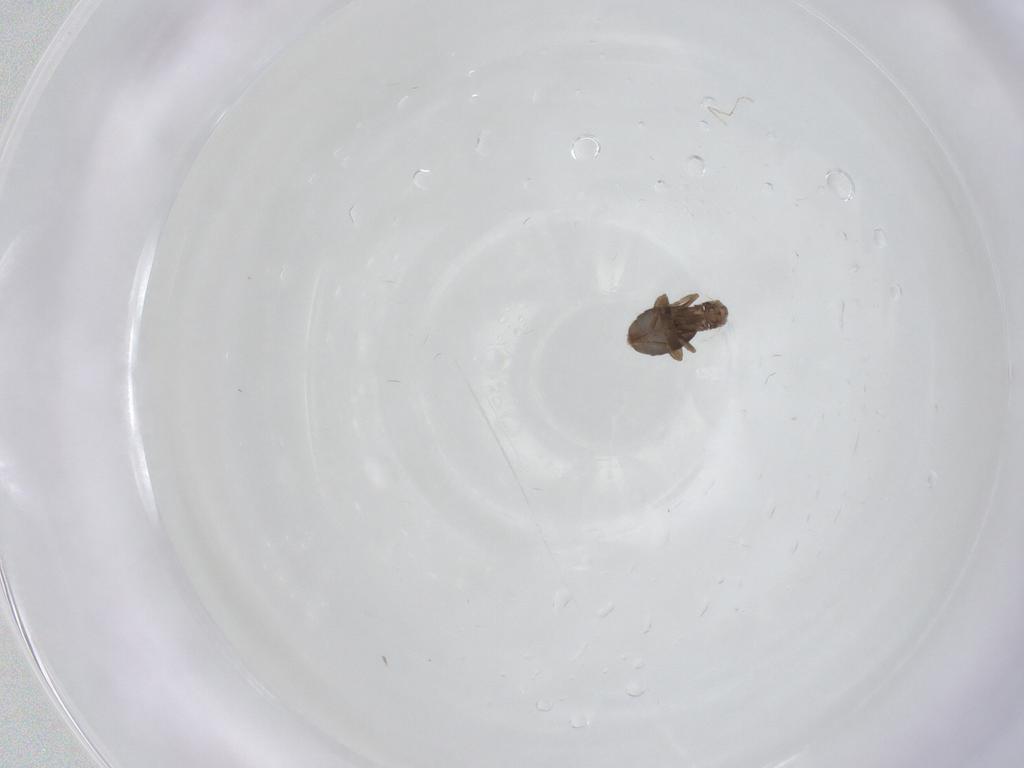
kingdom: Animalia
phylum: Arthropoda
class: Insecta
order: Diptera
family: Phoridae
